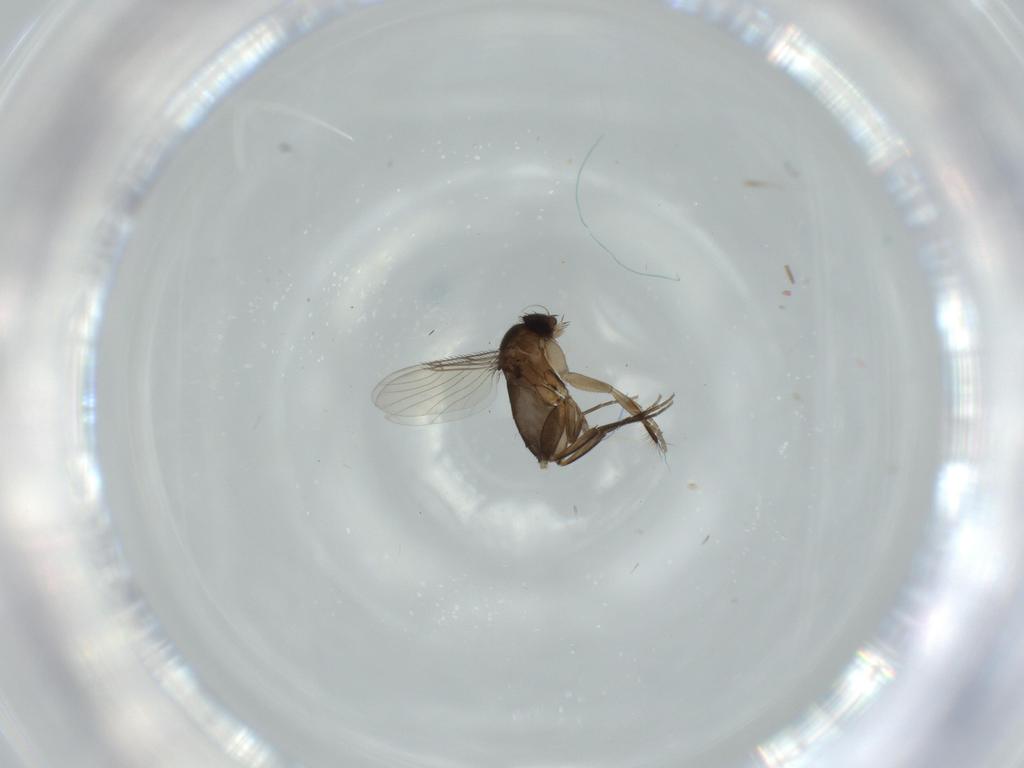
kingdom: Animalia
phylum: Arthropoda
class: Insecta
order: Diptera
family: Phoridae
